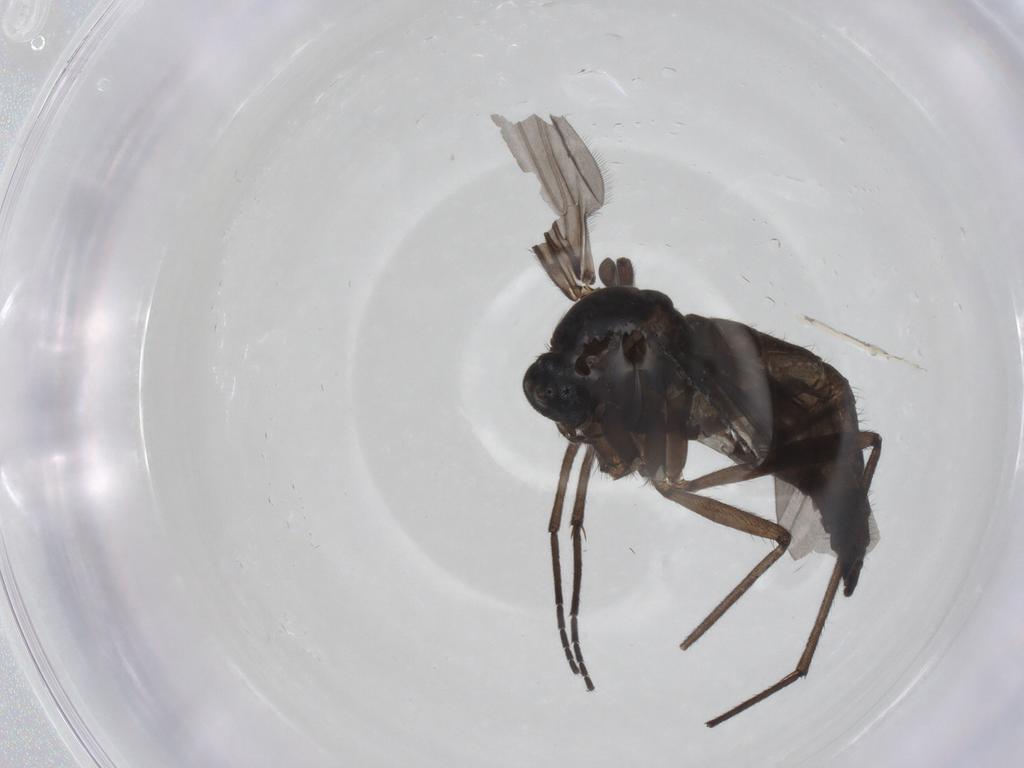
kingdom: Animalia
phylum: Arthropoda
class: Insecta
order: Diptera
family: Sciaridae
